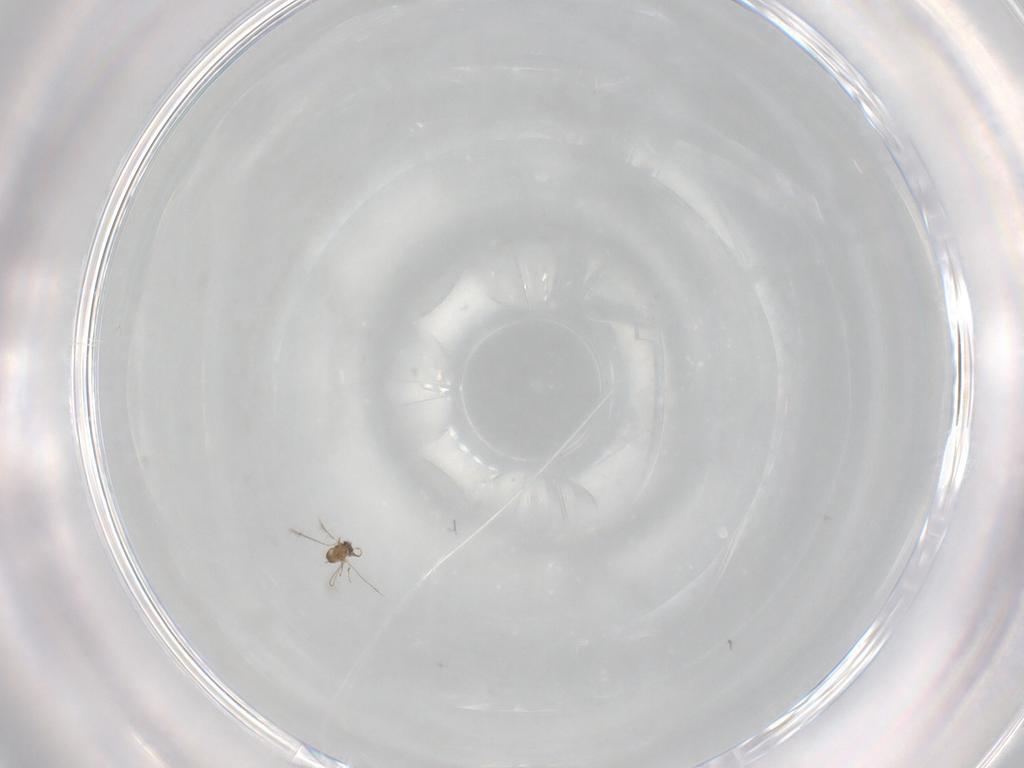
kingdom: Animalia
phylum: Arthropoda
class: Insecta
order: Hymenoptera
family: Mymaridae
